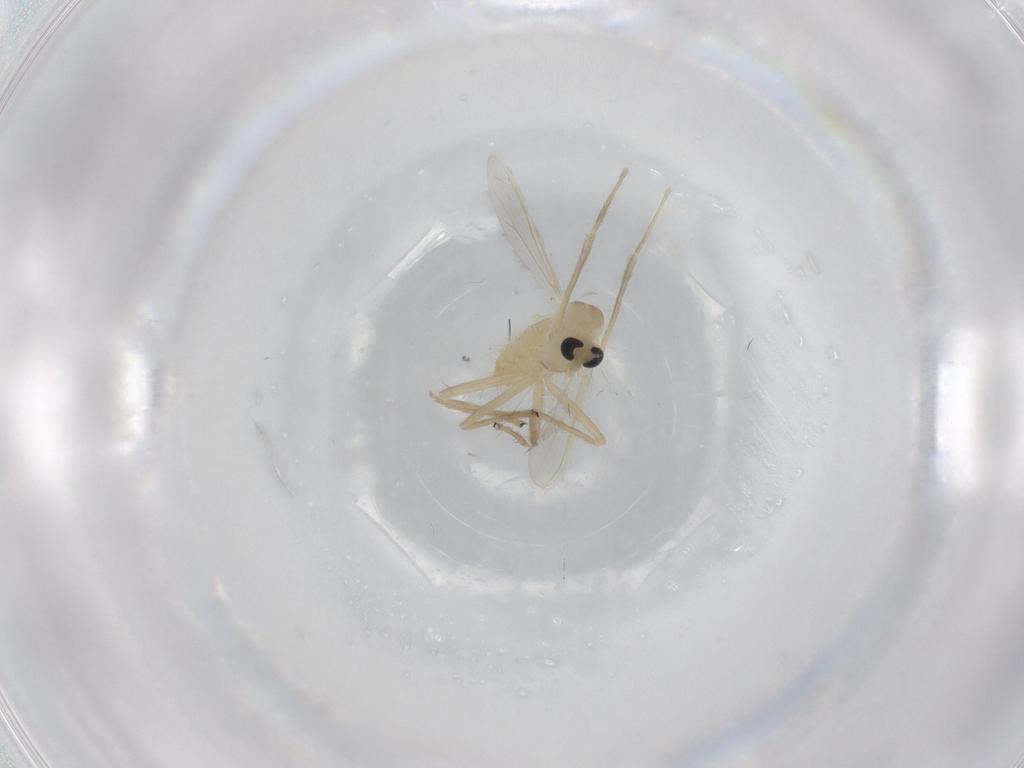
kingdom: Animalia
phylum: Arthropoda
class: Insecta
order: Diptera
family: Chironomidae
